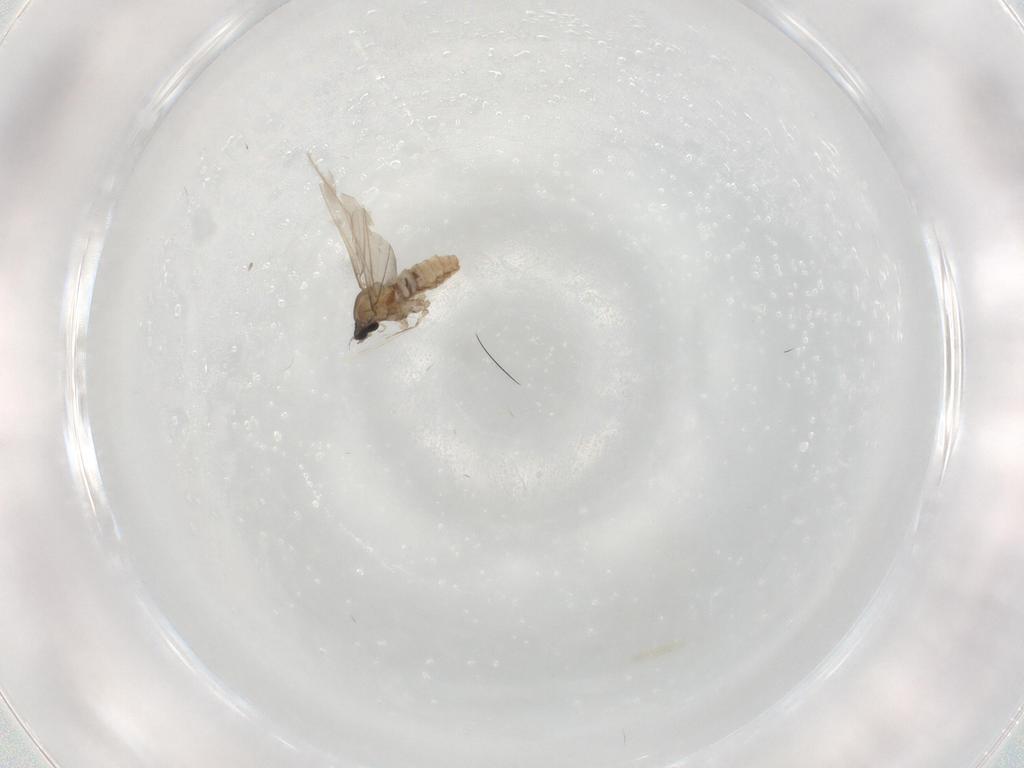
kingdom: Animalia
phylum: Arthropoda
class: Insecta
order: Diptera
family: Cecidomyiidae
